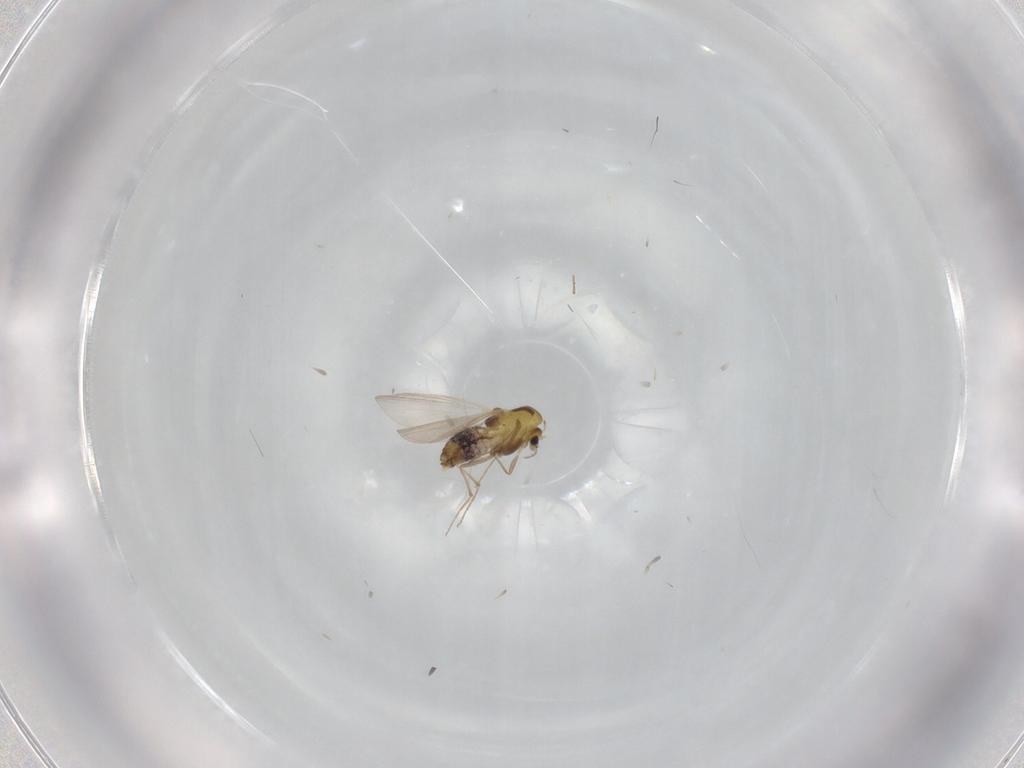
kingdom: Animalia
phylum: Arthropoda
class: Insecta
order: Diptera
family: Chironomidae
